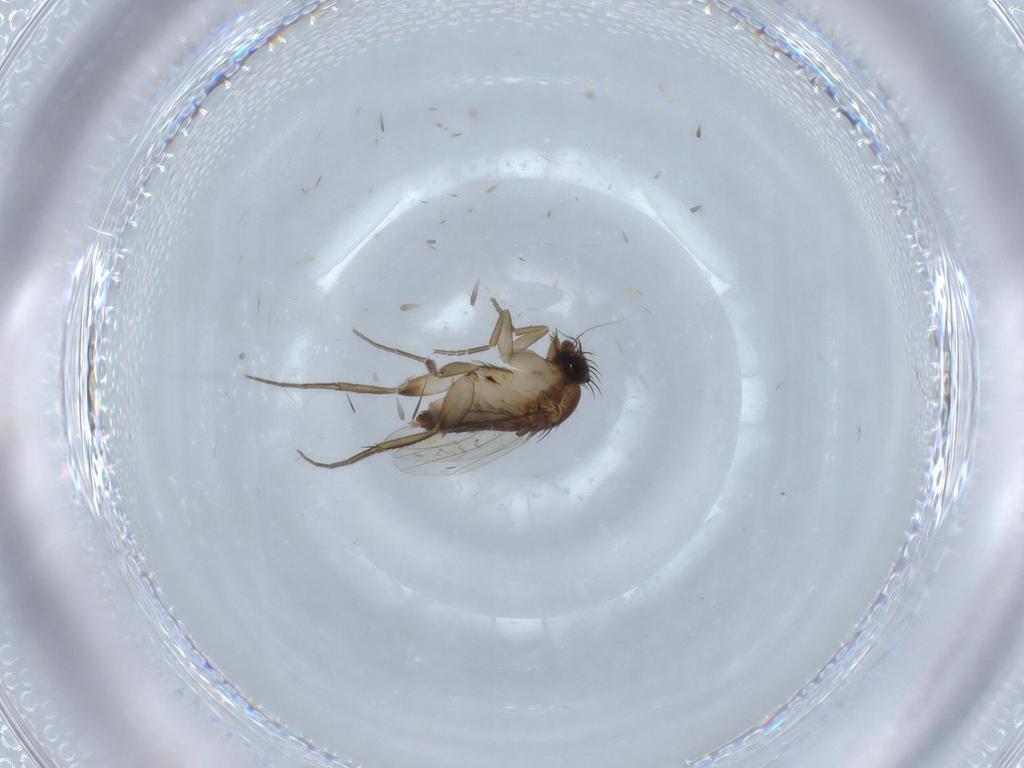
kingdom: Animalia
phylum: Arthropoda
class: Insecta
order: Diptera
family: Phoridae
